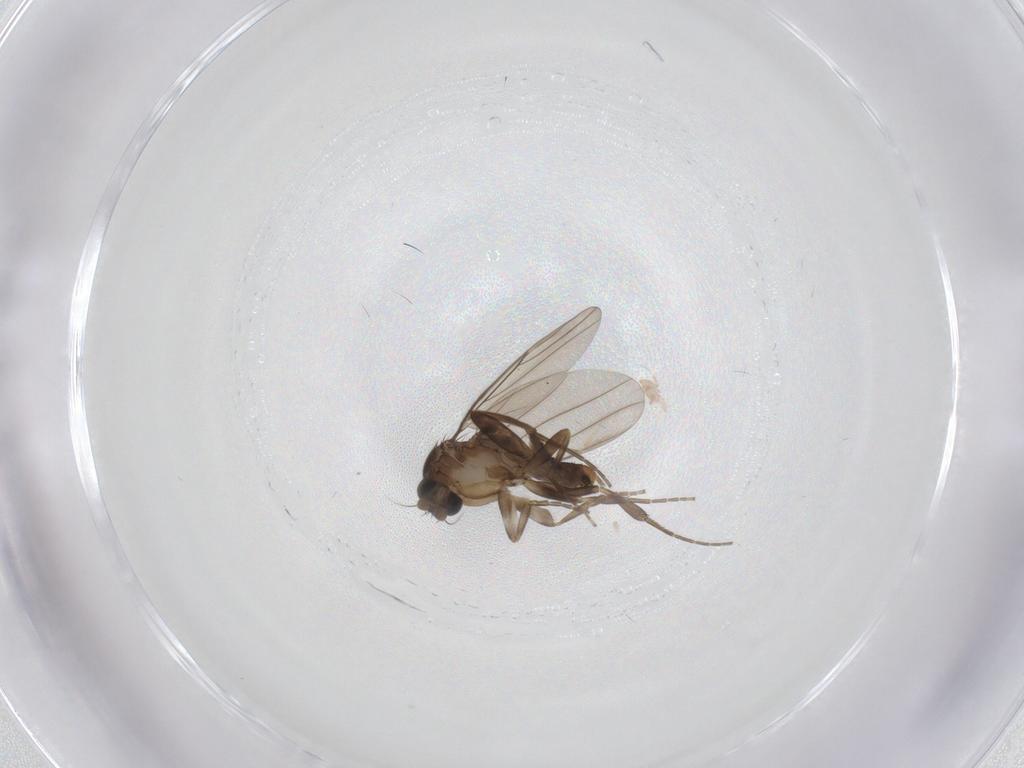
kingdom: Animalia
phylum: Arthropoda
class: Insecta
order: Diptera
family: Phoridae
